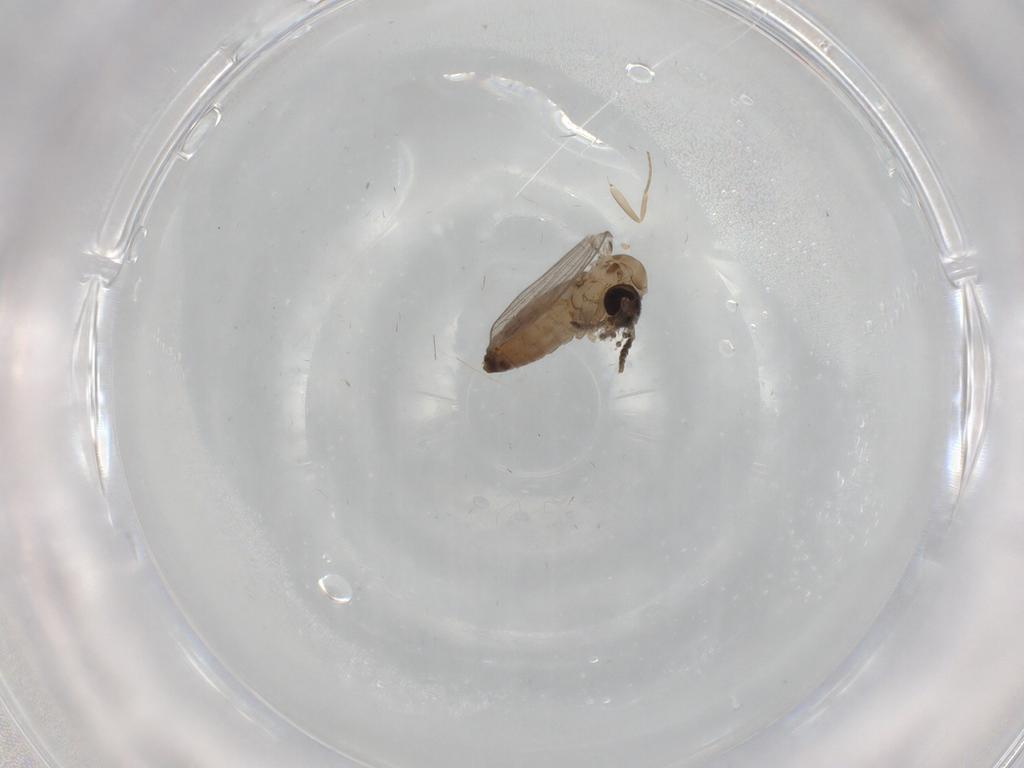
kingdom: Animalia
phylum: Arthropoda
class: Insecta
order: Diptera
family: Psychodidae
